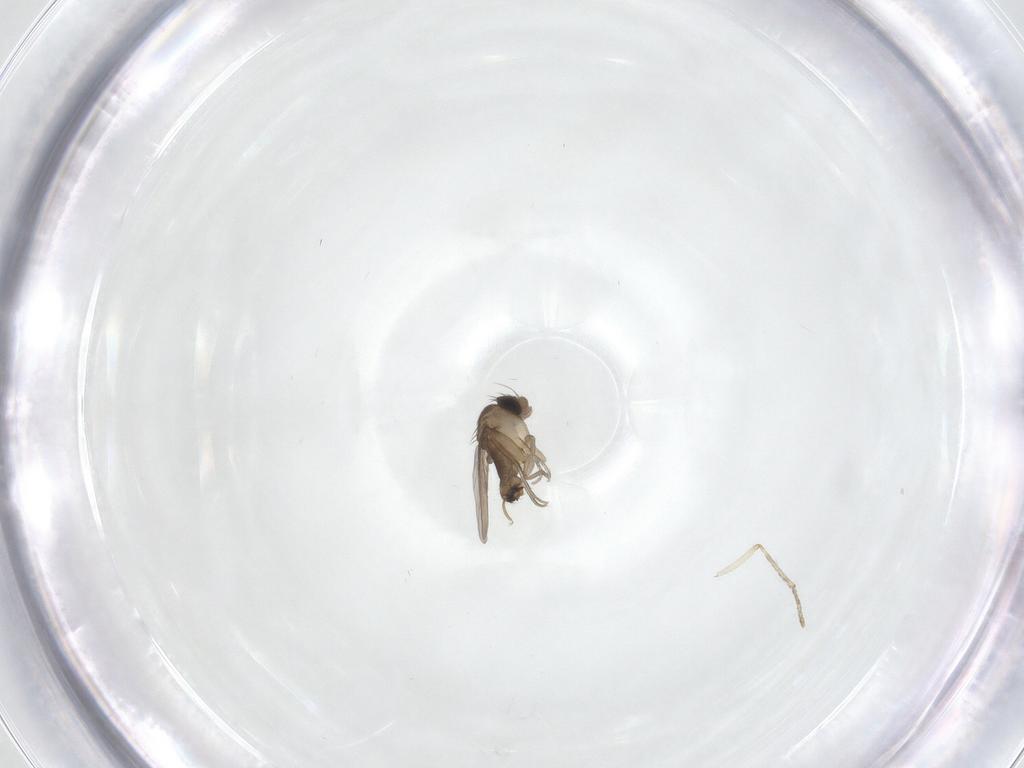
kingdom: Animalia
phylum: Arthropoda
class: Insecta
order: Diptera
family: Phoridae
